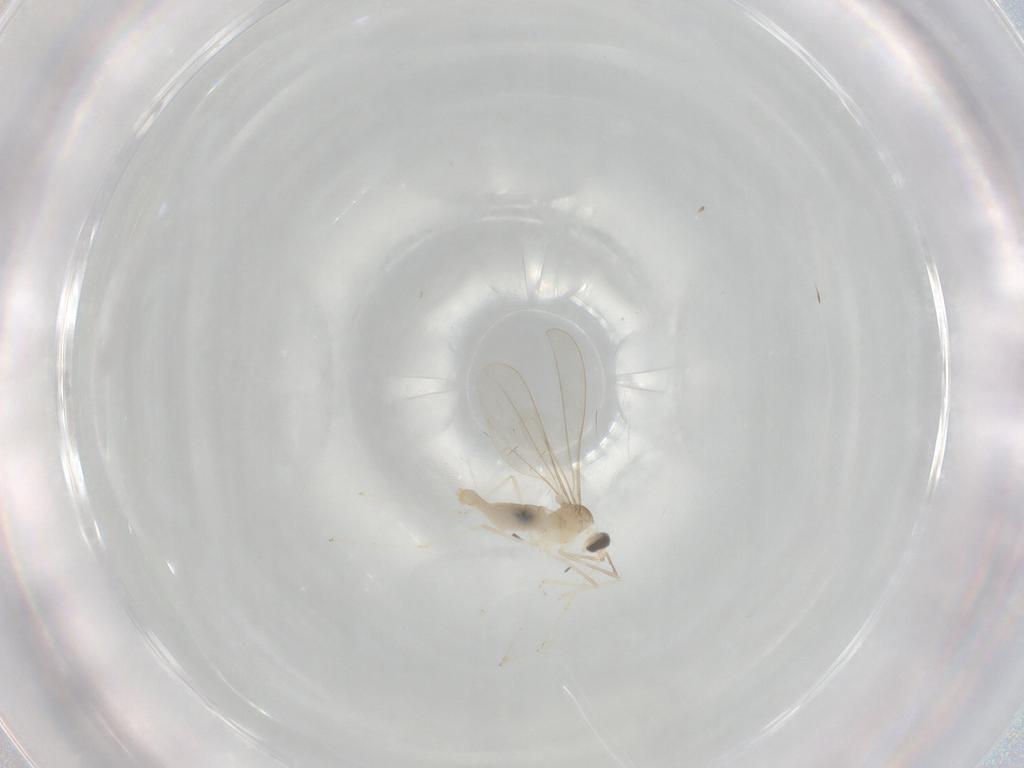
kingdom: Animalia
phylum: Arthropoda
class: Insecta
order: Diptera
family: Cecidomyiidae
